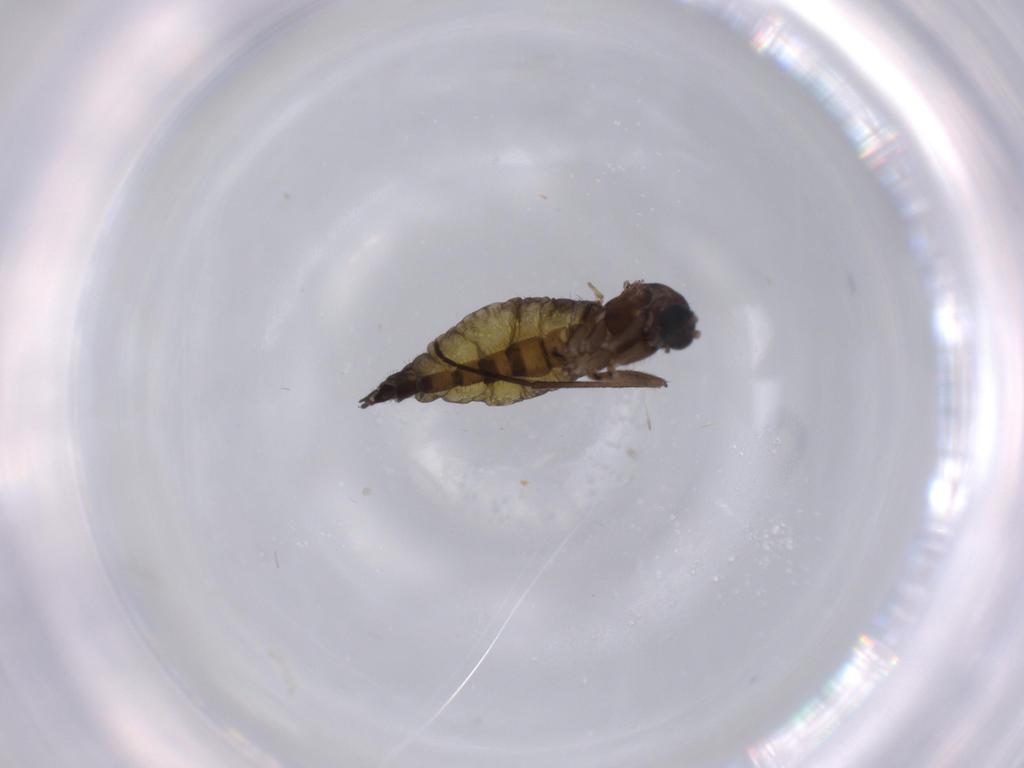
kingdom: Animalia
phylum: Arthropoda
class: Insecta
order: Diptera
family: Sciaridae
